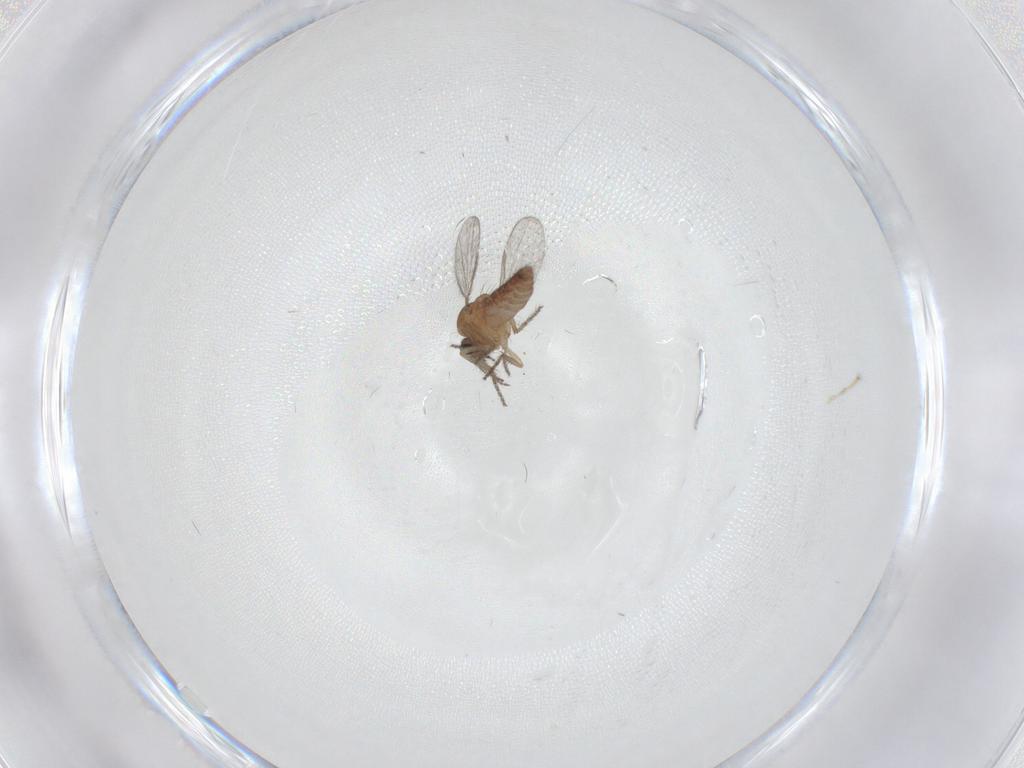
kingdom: Animalia
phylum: Arthropoda
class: Insecta
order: Diptera
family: Ceratopogonidae
